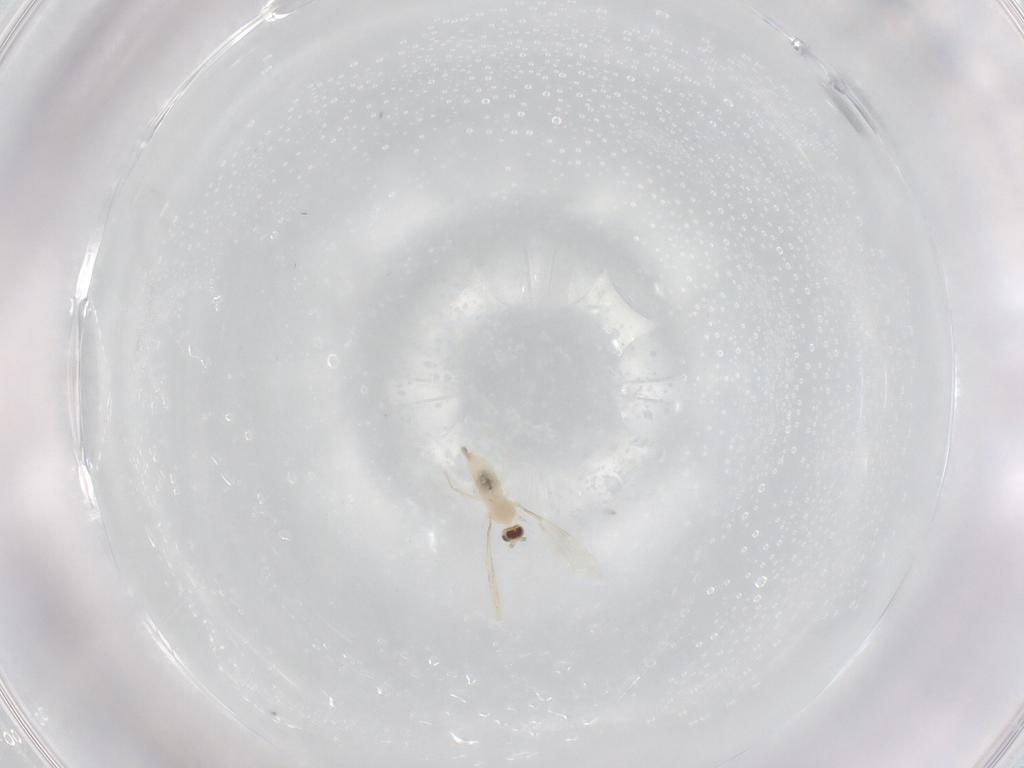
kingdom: Animalia
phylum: Arthropoda
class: Insecta
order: Diptera
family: Cecidomyiidae
